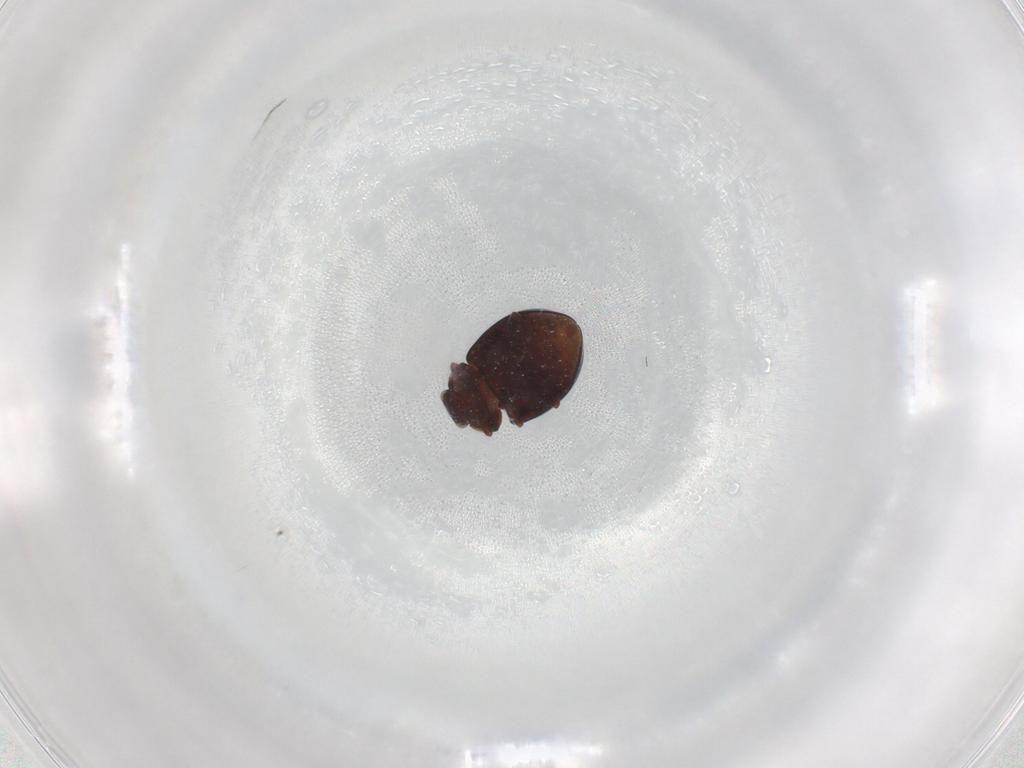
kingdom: Animalia
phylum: Arthropoda
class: Insecta
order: Coleoptera
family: Coccinellidae
